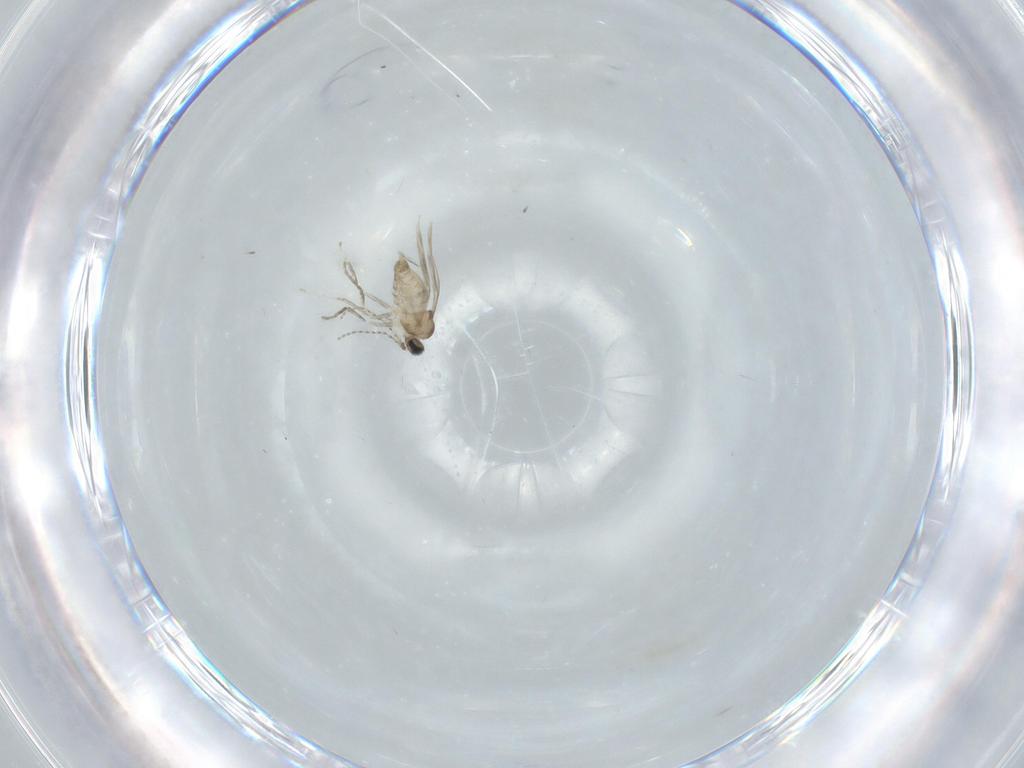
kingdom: Animalia
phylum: Arthropoda
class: Insecta
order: Diptera
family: Cecidomyiidae
